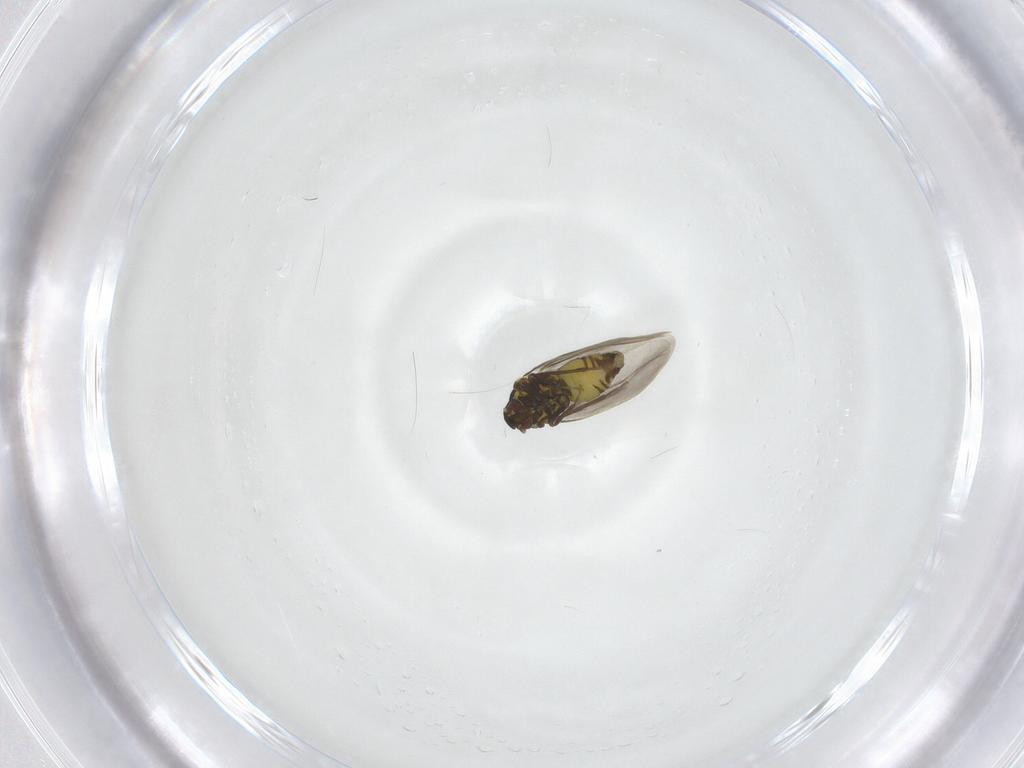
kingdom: Animalia
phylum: Arthropoda
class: Insecta
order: Hemiptera
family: Aleyrodidae
